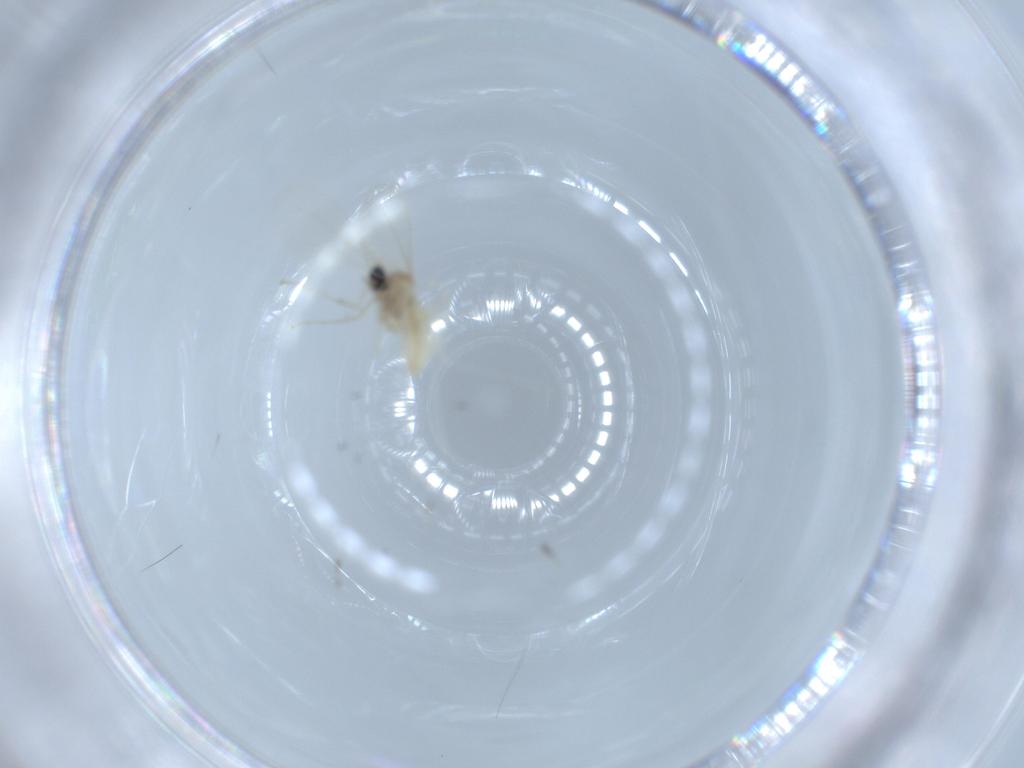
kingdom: Animalia
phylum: Arthropoda
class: Insecta
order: Diptera
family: Cecidomyiidae
